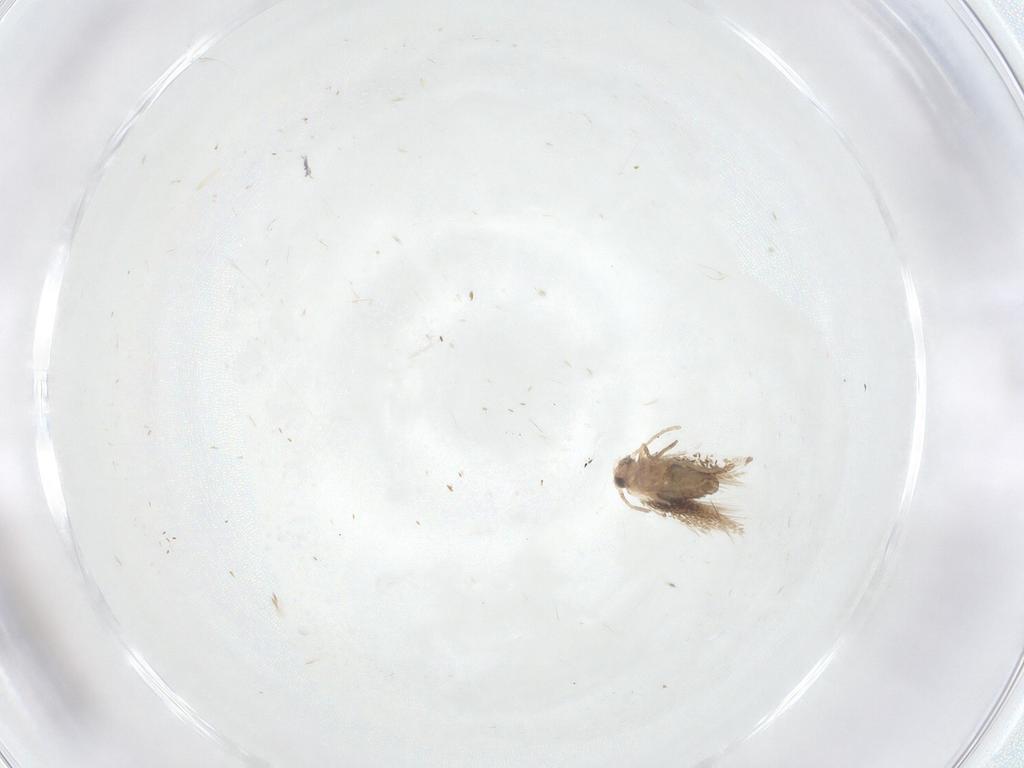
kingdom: Animalia
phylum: Arthropoda
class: Insecta
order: Lepidoptera
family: Nepticulidae
